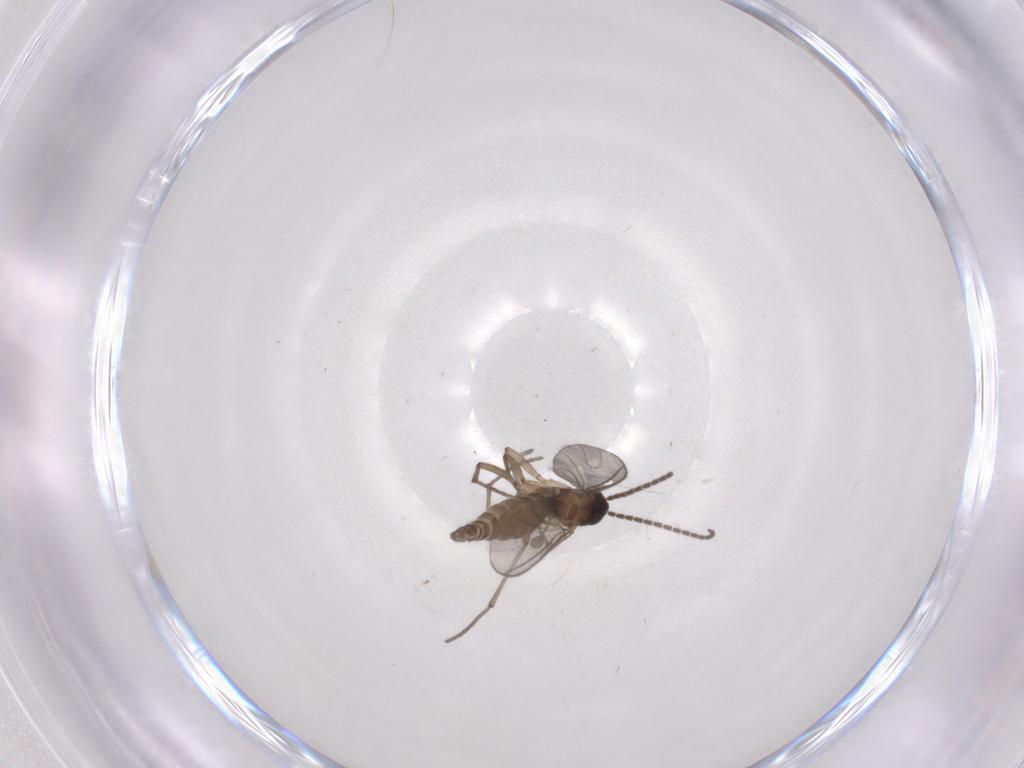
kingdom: Animalia
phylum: Arthropoda
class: Insecta
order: Diptera
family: Sciaridae
